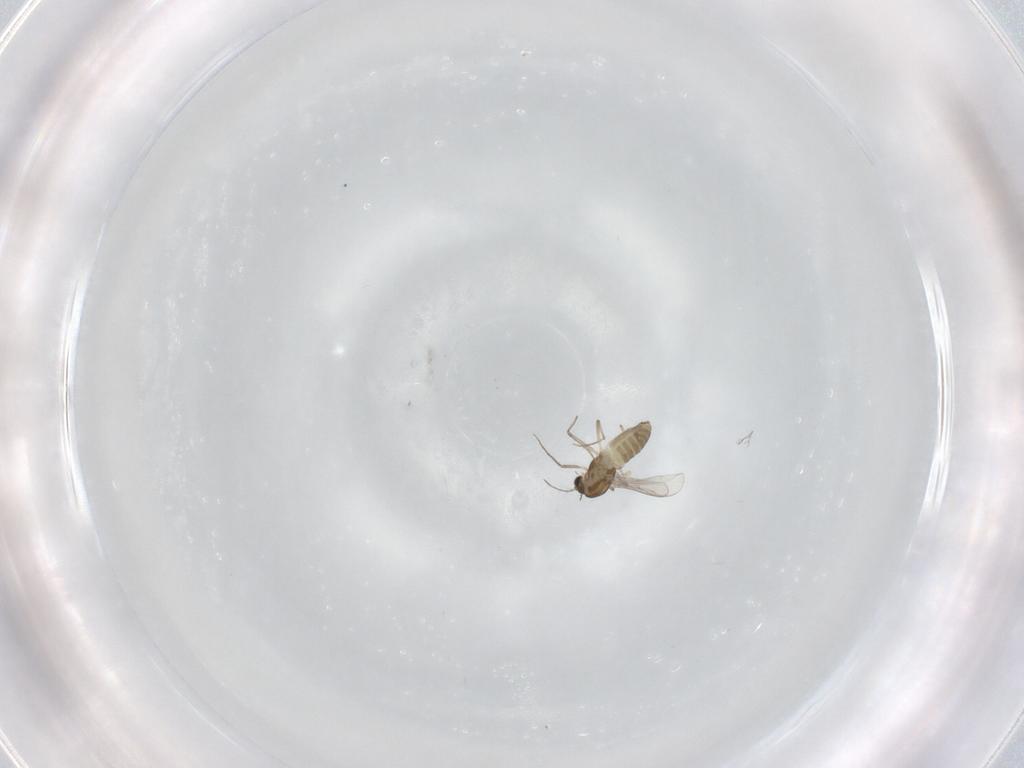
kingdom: Animalia
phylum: Arthropoda
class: Insecta
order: Diptera
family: Chironomidae
